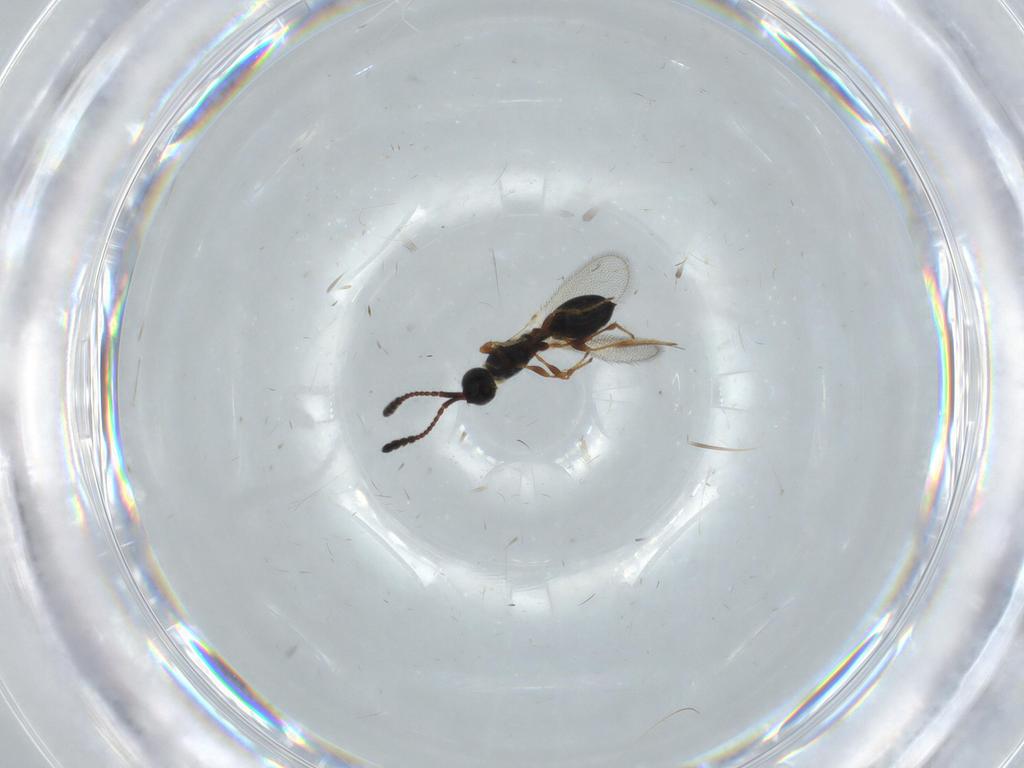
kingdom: Animalia
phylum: Arthropoda
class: Insecta
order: Hymenoptera
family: Diapriidae
